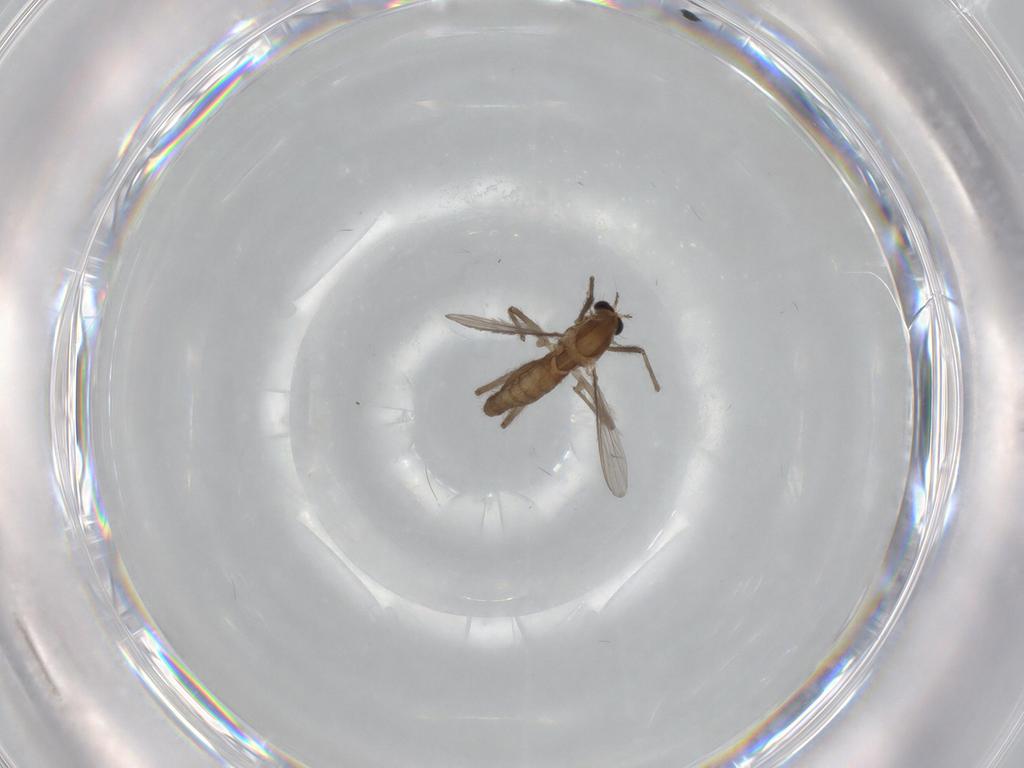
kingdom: Animalia
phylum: Arthropoda
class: Insecta
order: Diptera
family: Chironomidae
